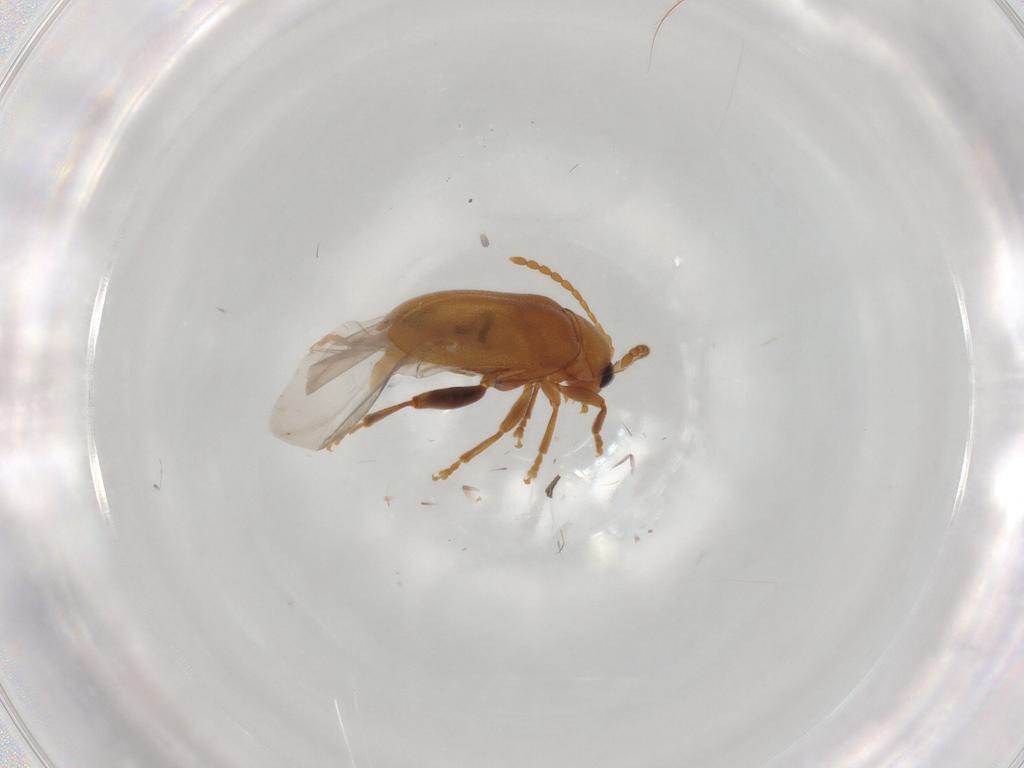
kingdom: Animalia
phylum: Arthropoda
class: Insecta
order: Coleoptera
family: Chrysomelidae
